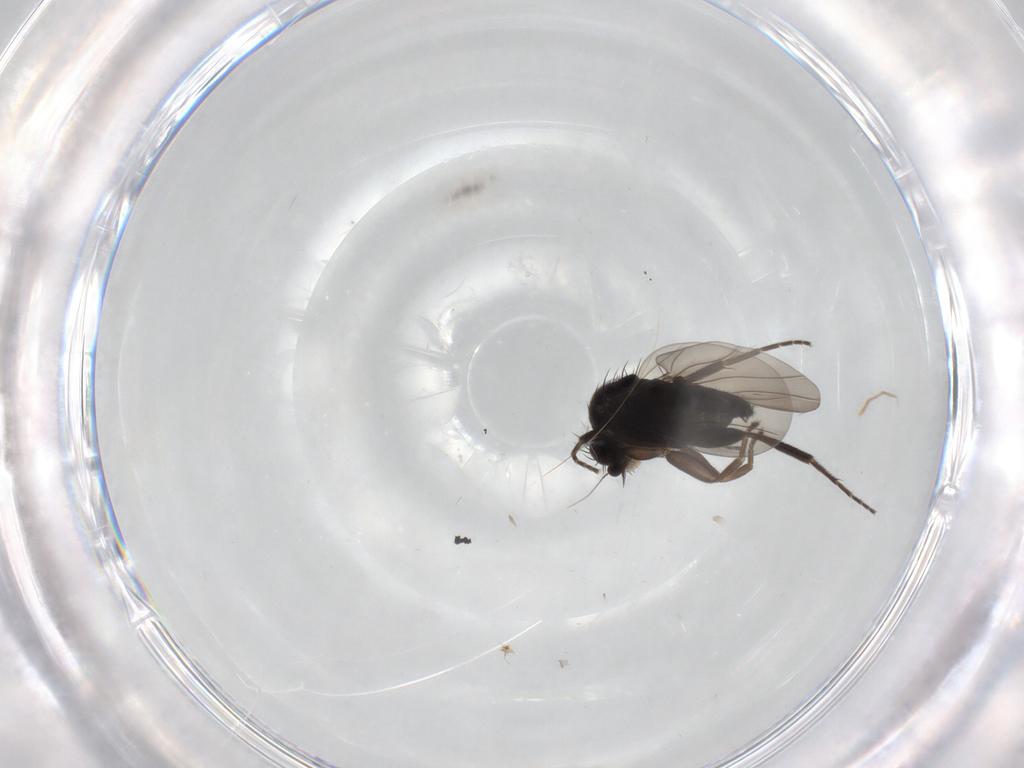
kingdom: Animalia
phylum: Arthropoda
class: Insecta
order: Diptera
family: Phoridae
